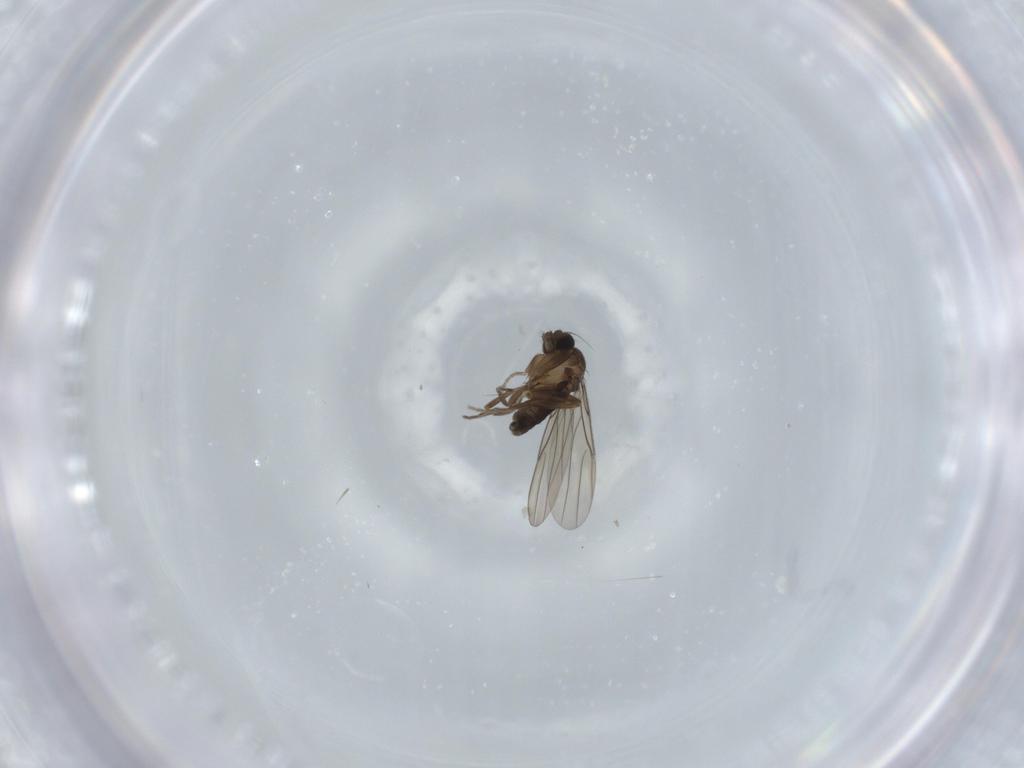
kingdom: Animalia
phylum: Arthropoda
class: Insecta
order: Diptera
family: Phoridae
